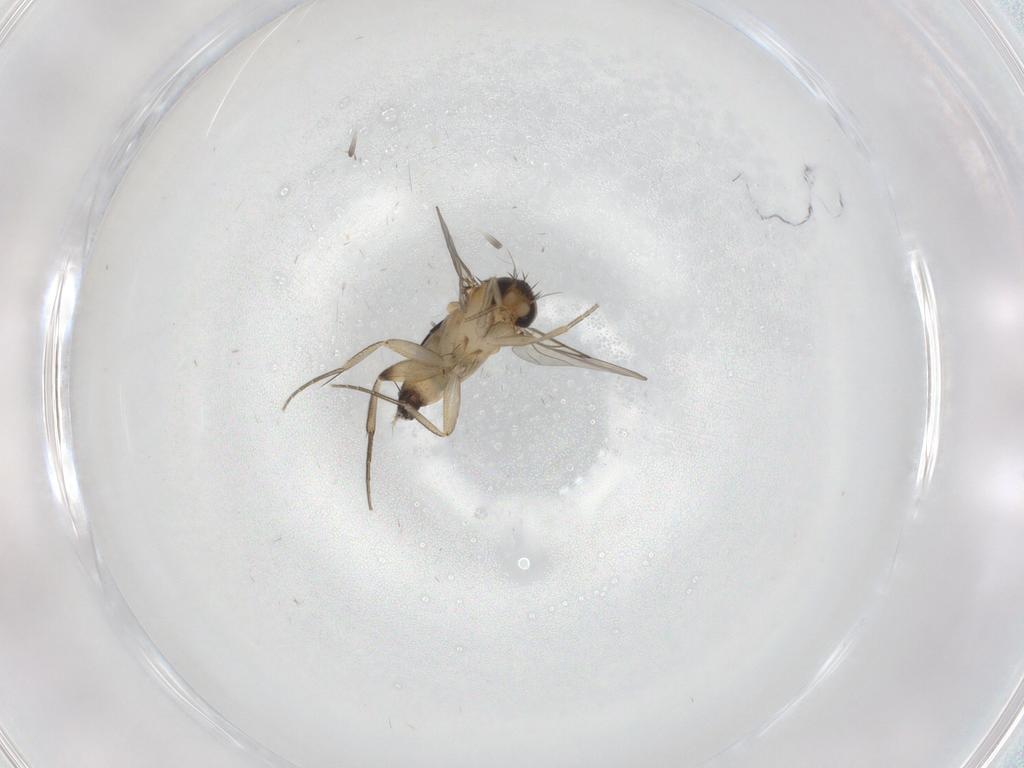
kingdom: Animalia
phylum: Arthropoda
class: Insecta
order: Diptera
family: Phoridae
